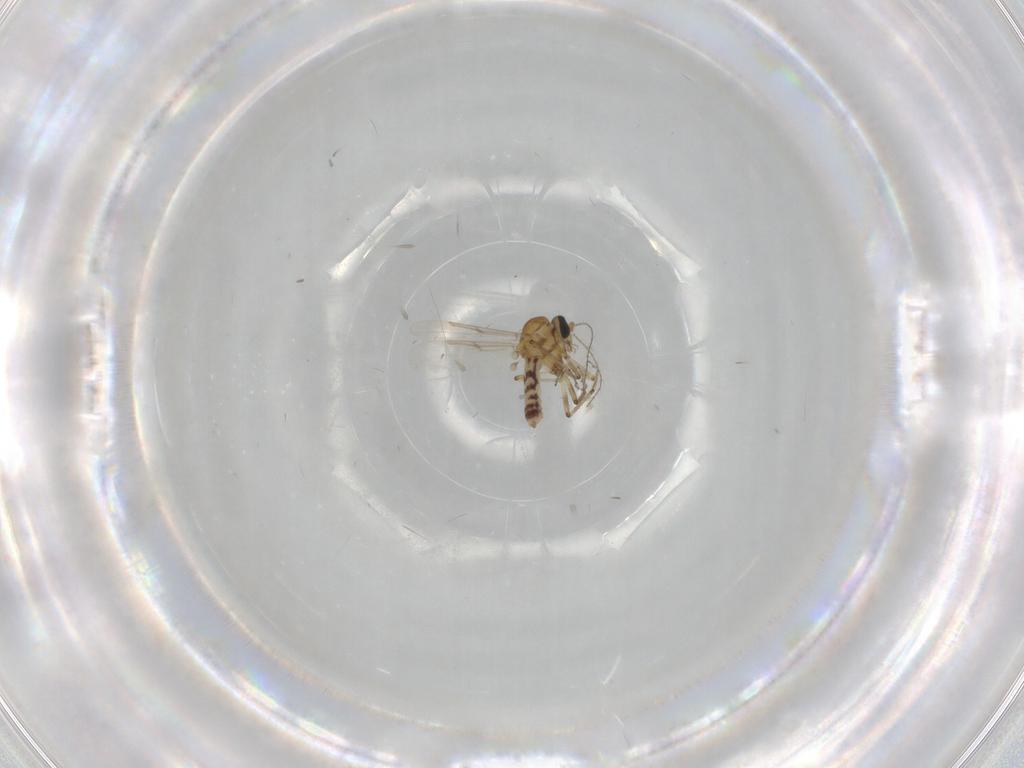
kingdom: Animalia
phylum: Arthropoda
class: Insecta
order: Diptera
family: Ceratopogonidae
